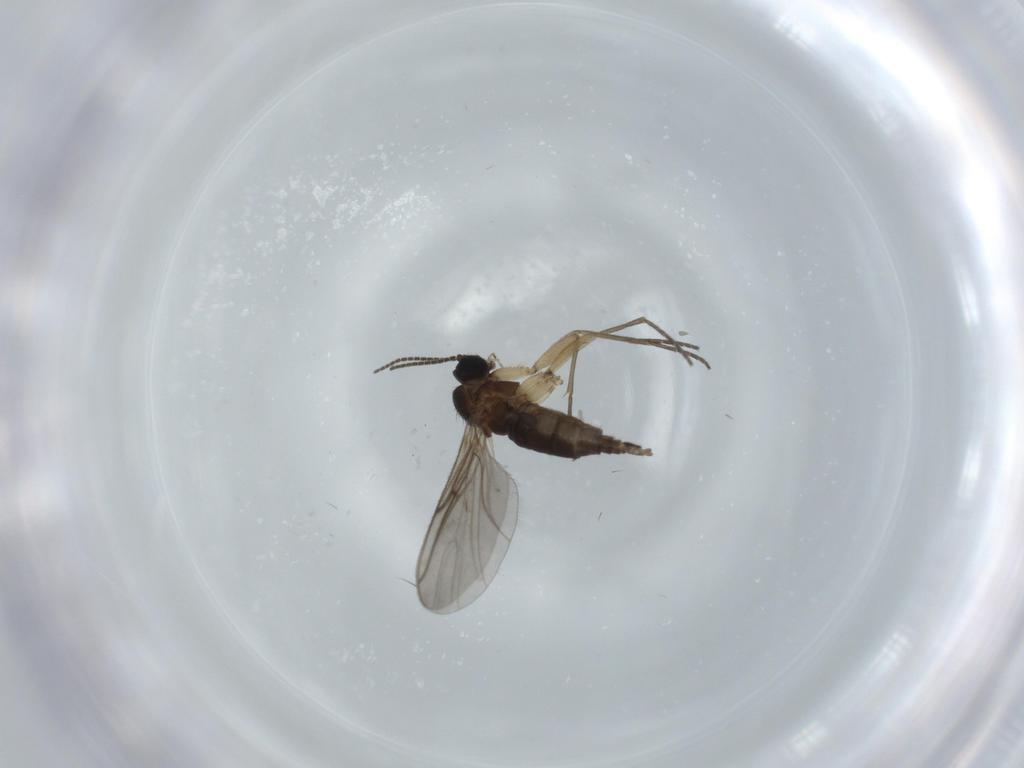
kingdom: Animalia
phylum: Arthropoda
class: Insecta
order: Diptera
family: Sciaridae
